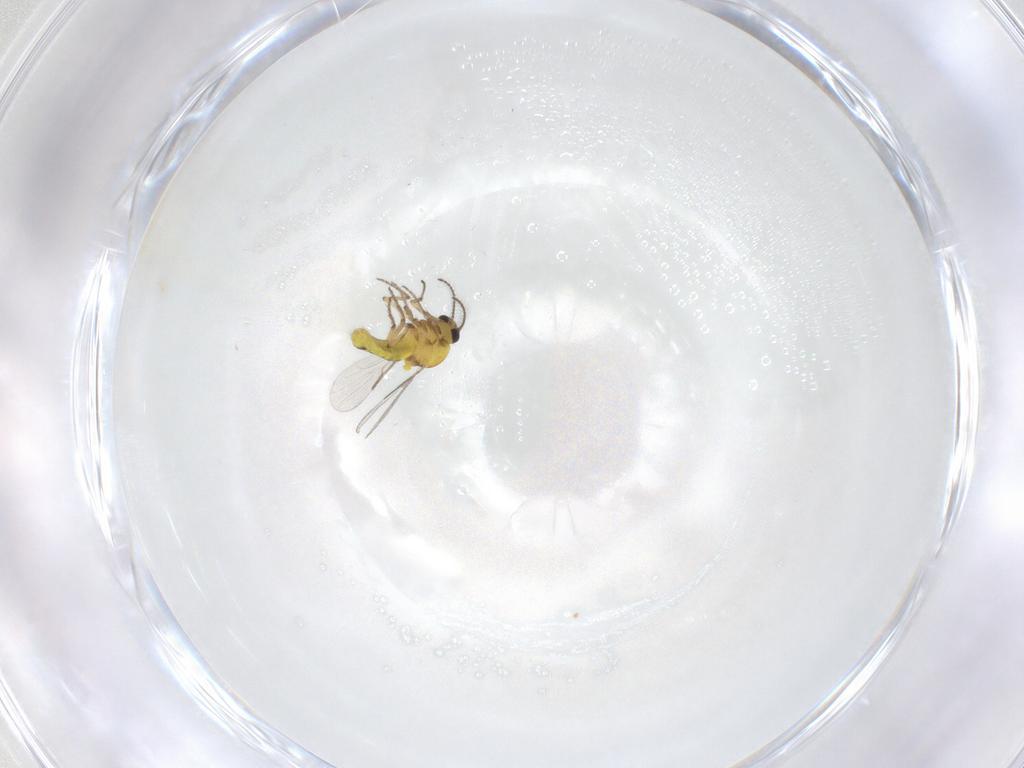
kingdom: Animalia
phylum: Arthropoda
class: Insecta
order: Diptera
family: Ceratopogonidae
